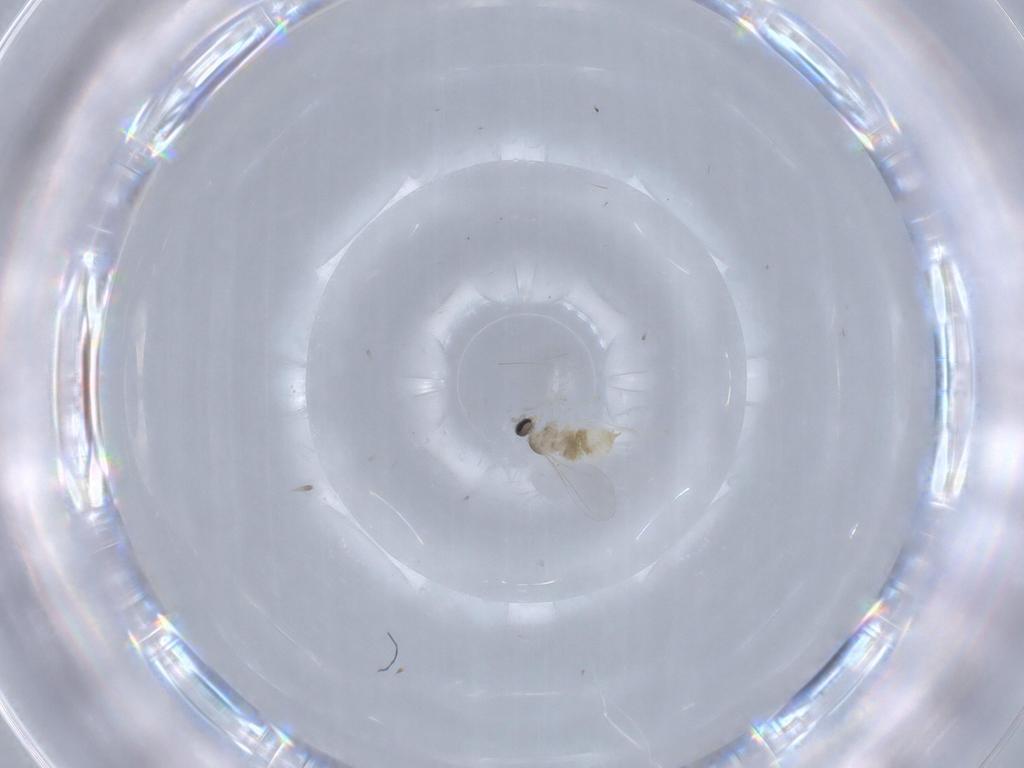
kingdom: Animalia
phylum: Arthropoda
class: Insecta
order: Diptera
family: Cecidomyiidae
